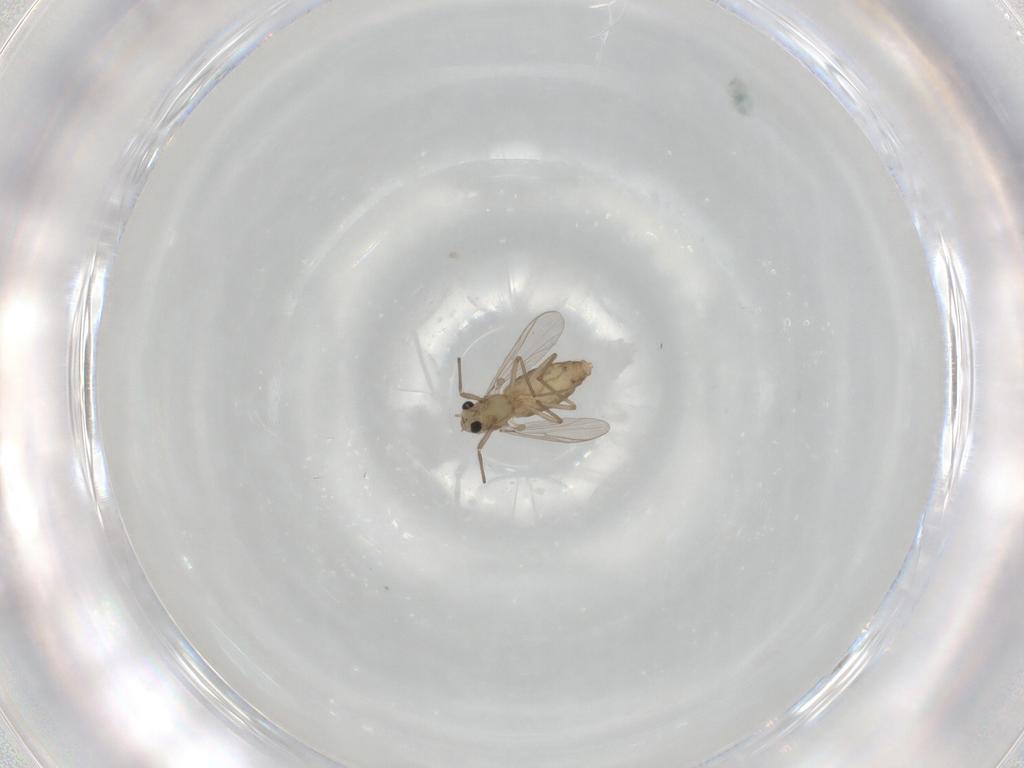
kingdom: Animalia
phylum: Arthropoda
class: Insecta
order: Diptera
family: Chironomidae
